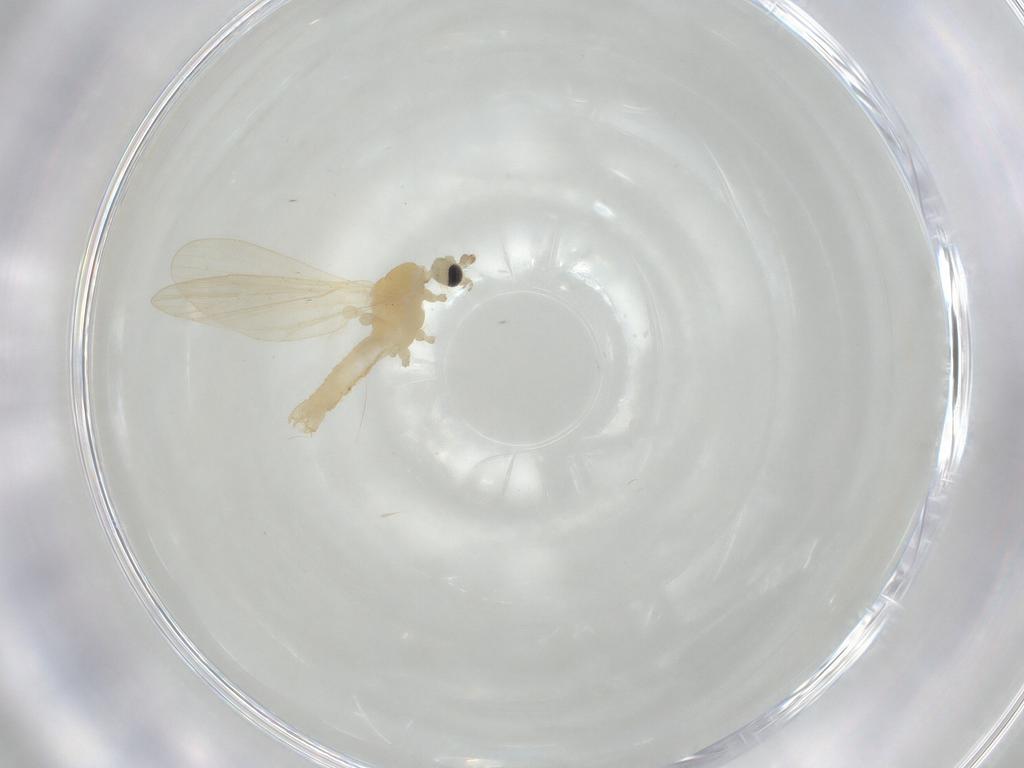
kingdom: Animalia
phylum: Arthropoda
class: Insecta
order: Diptera
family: Limoniidae
